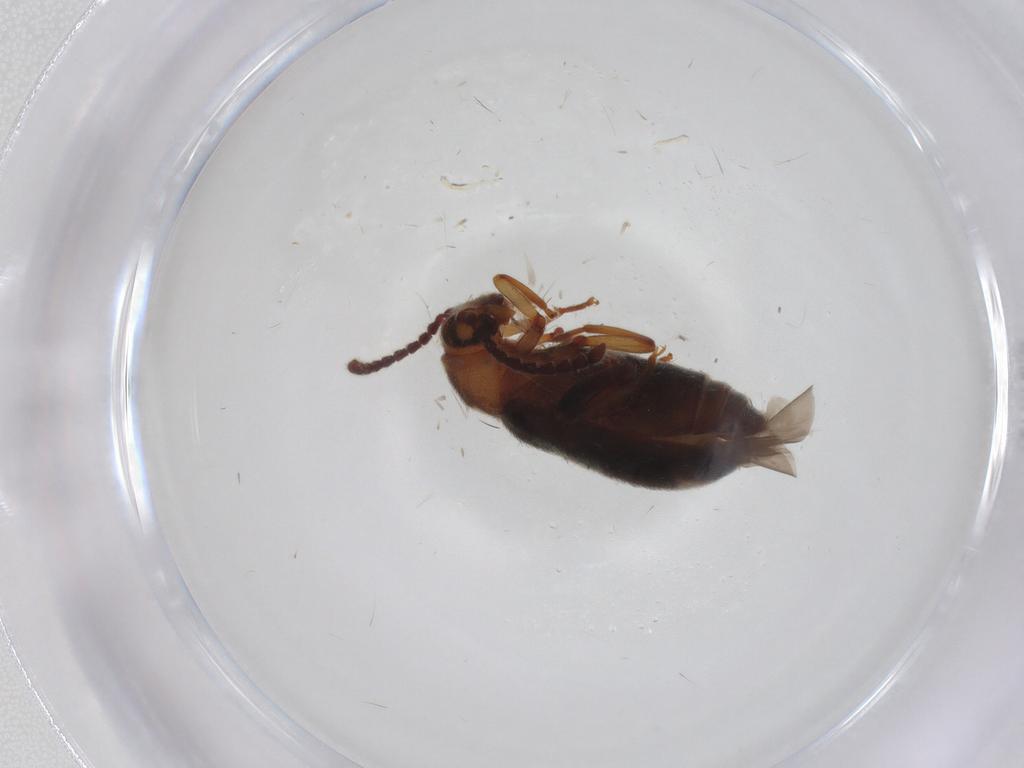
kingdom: Animalia
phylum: Arthropoda
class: Insecta
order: Coleoptera
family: Aderidae
